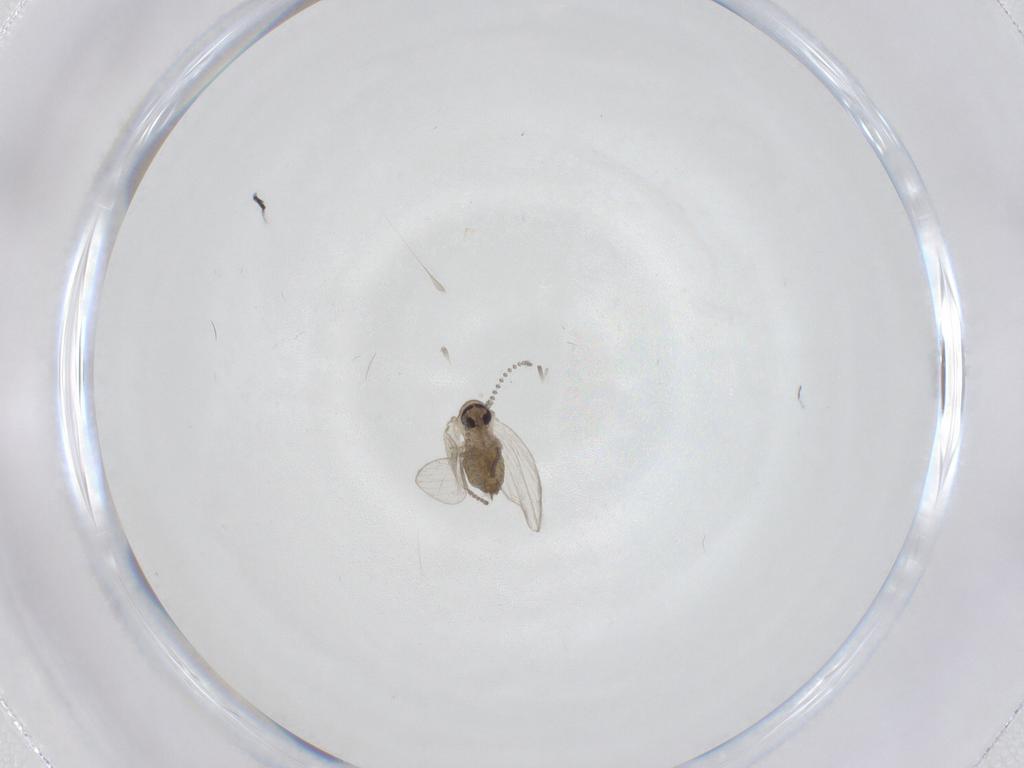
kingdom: Animalia
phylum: Arthropoda
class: Insecta
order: Diptera
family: Psychodidae
